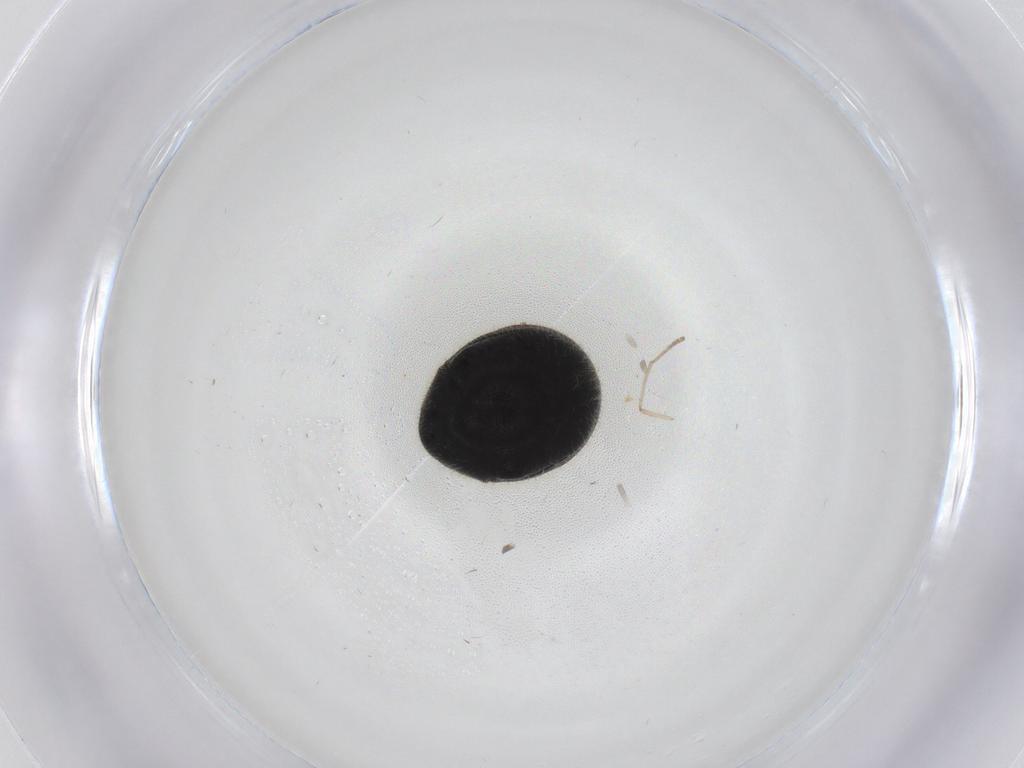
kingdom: Animalia
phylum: Arthropoda
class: Insecta
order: Coleoptera
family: Ptinidae
